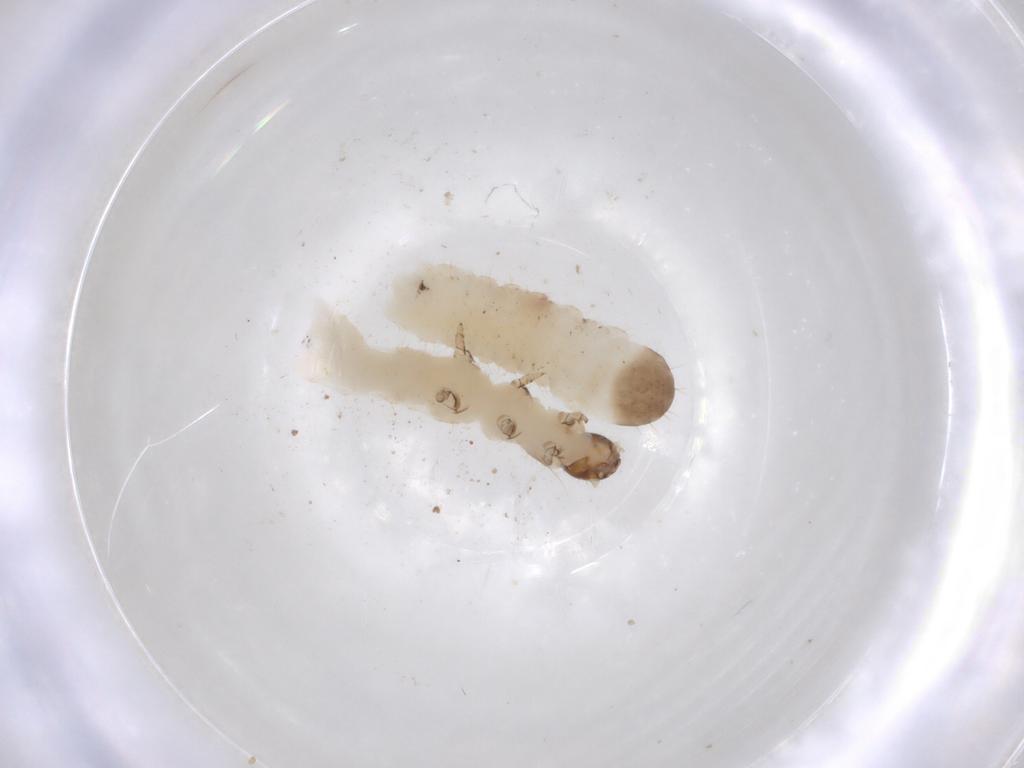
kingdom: Animalia
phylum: Arthropoda
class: Insecta
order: Coleoptera
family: Chrysomelidae
